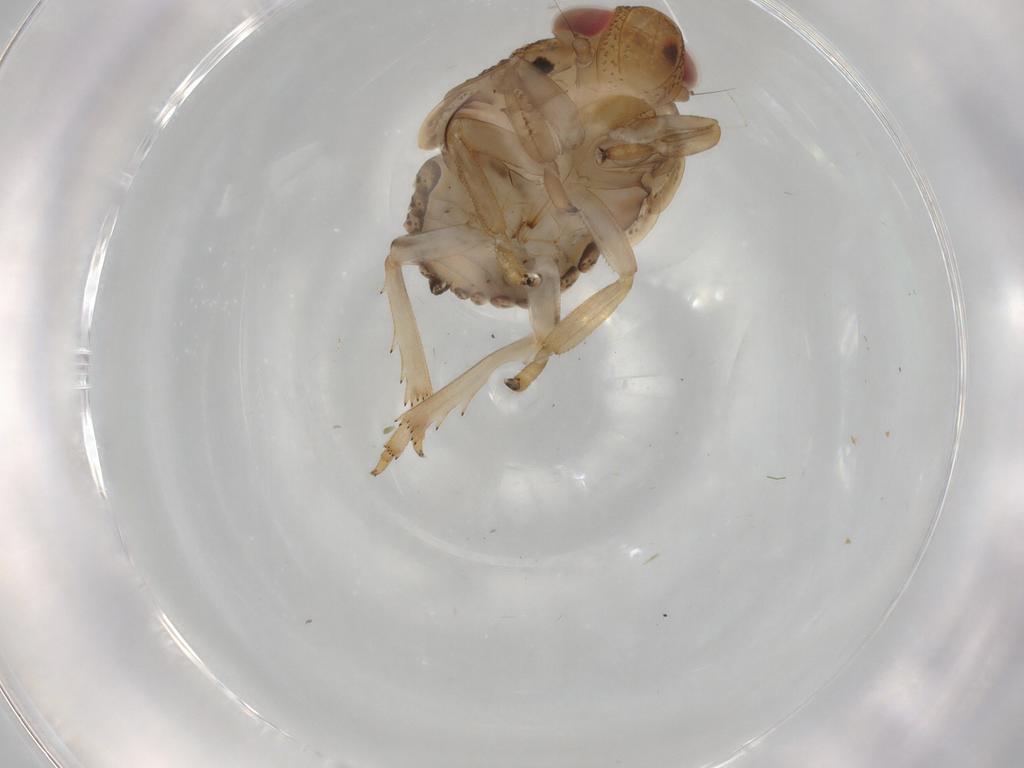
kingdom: Animalia
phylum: Arthropoda
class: Insecta
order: Hemiptera
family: Issidae
